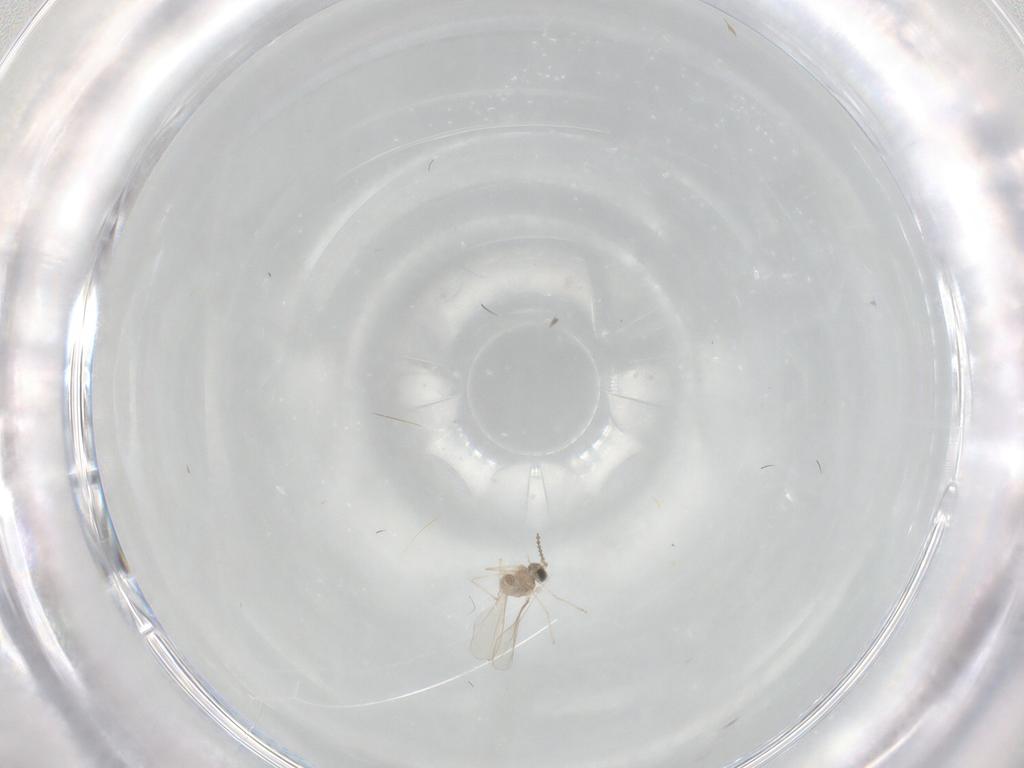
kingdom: Animalia
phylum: Arthropoda
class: Insecta
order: Diptera
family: Cecidomyiidae
